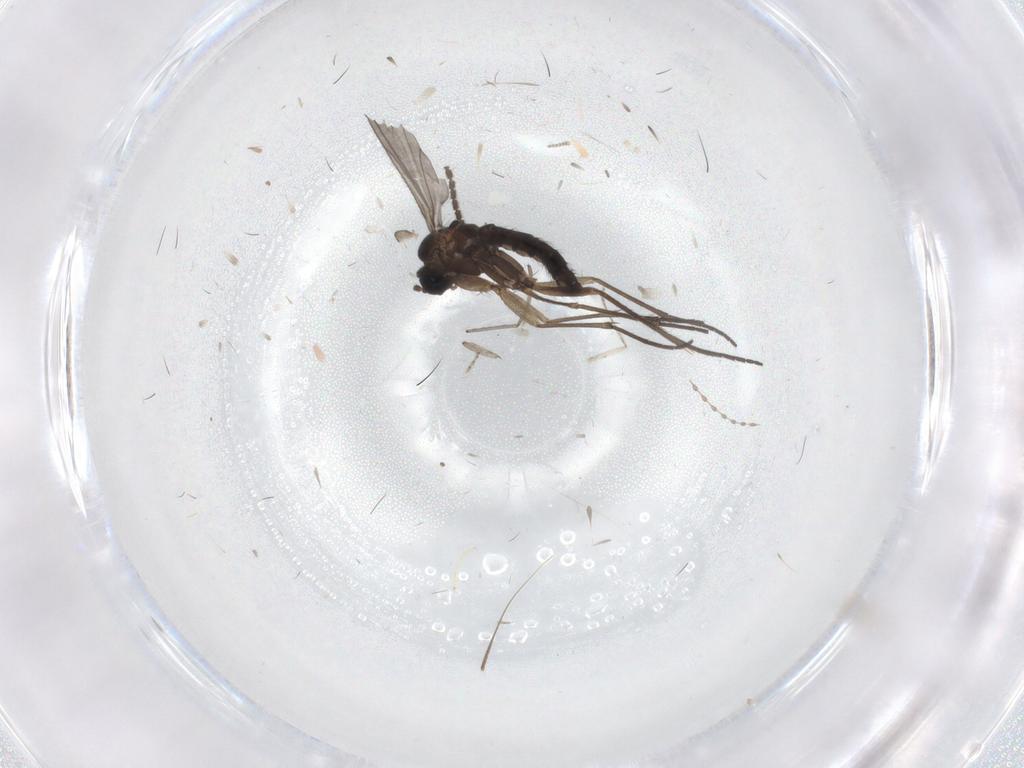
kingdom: Animalia
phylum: Arthropoda
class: Insecta
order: Diptera
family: Sciaridae
